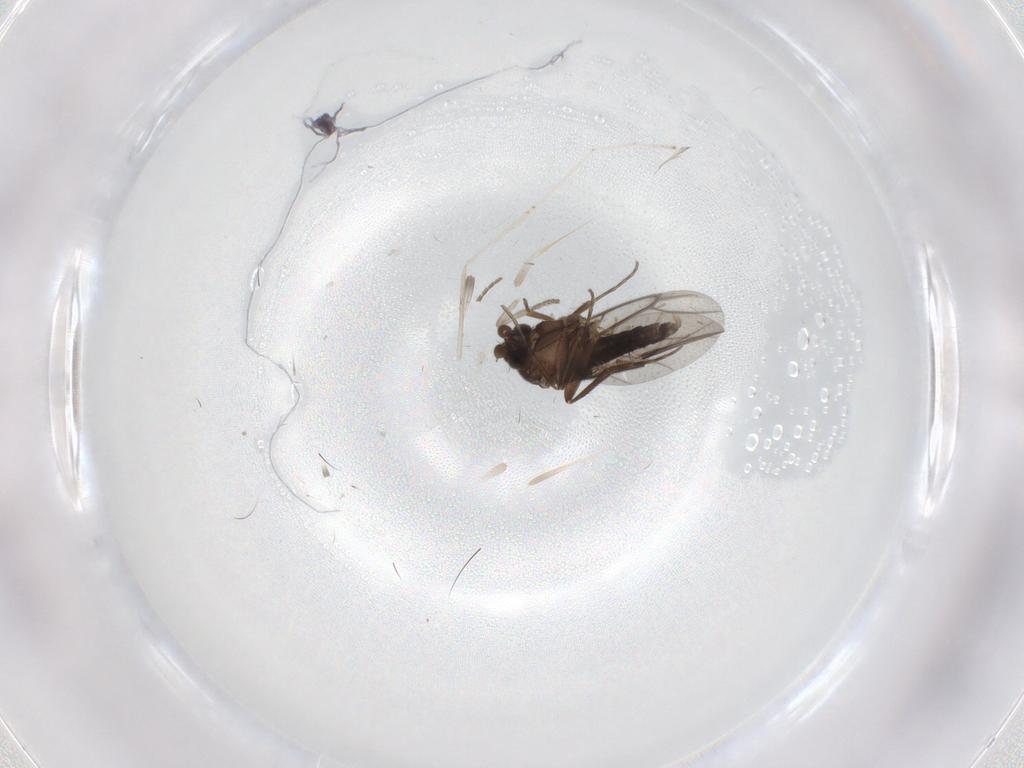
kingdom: Animalia
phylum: Arthropoda
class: Insecta
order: Diptera
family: Cecidomyiidae
